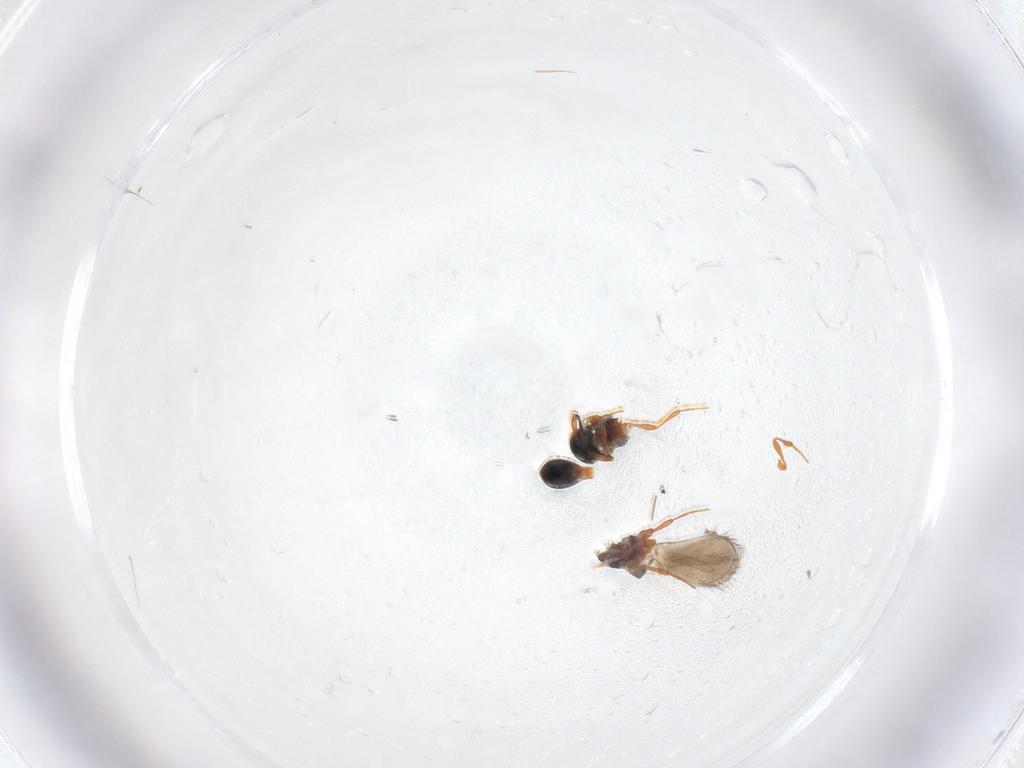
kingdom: Animalia
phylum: Arthropoda
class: Insecta
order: Hymenoptera
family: Platygastridae
